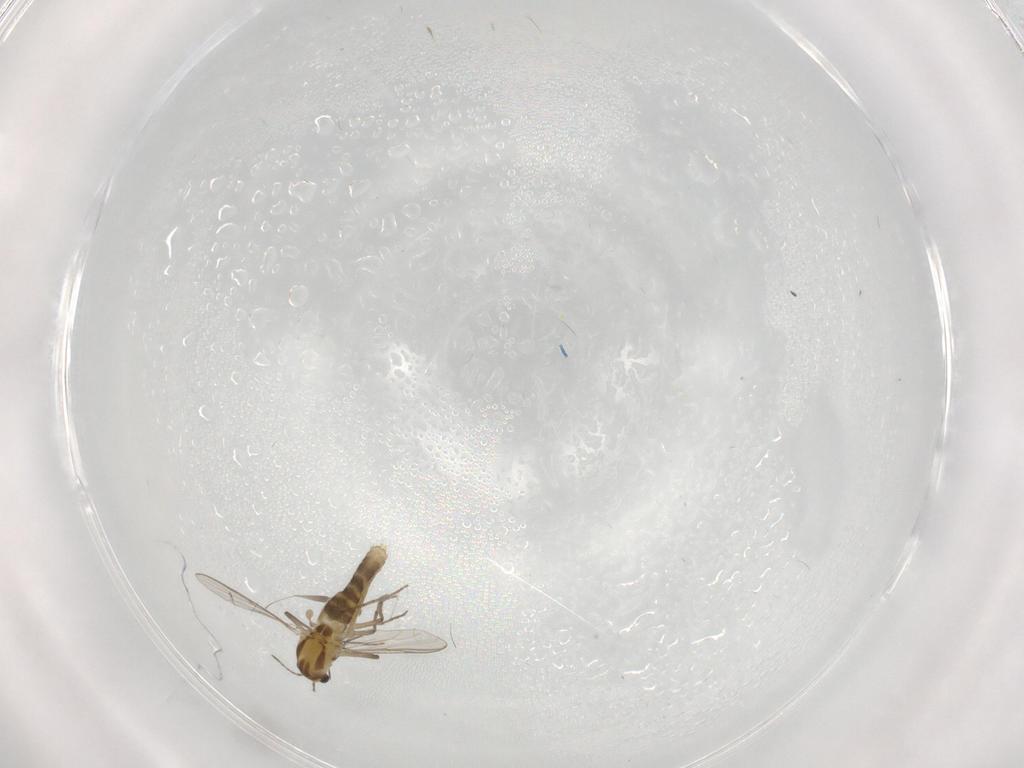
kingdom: Animalia
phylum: Arthropoda
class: Insecta
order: Diptera
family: Chironomidae
